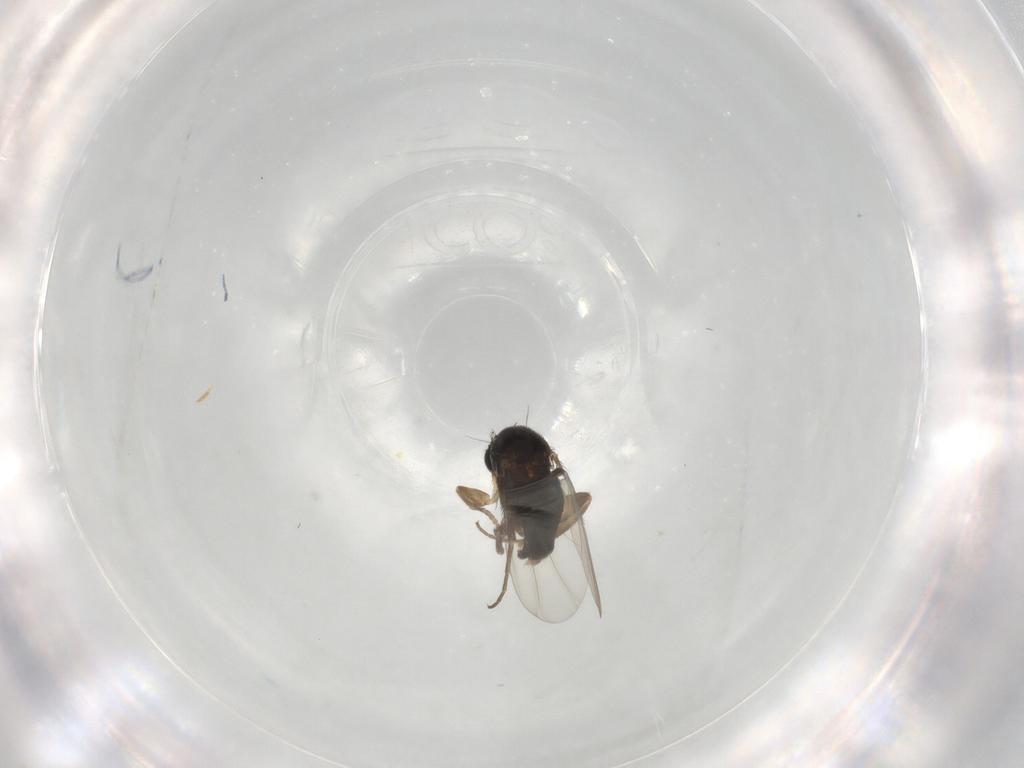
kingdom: Animalia
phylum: Arthropoda
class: Insecta
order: Diptera
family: Phoridae
